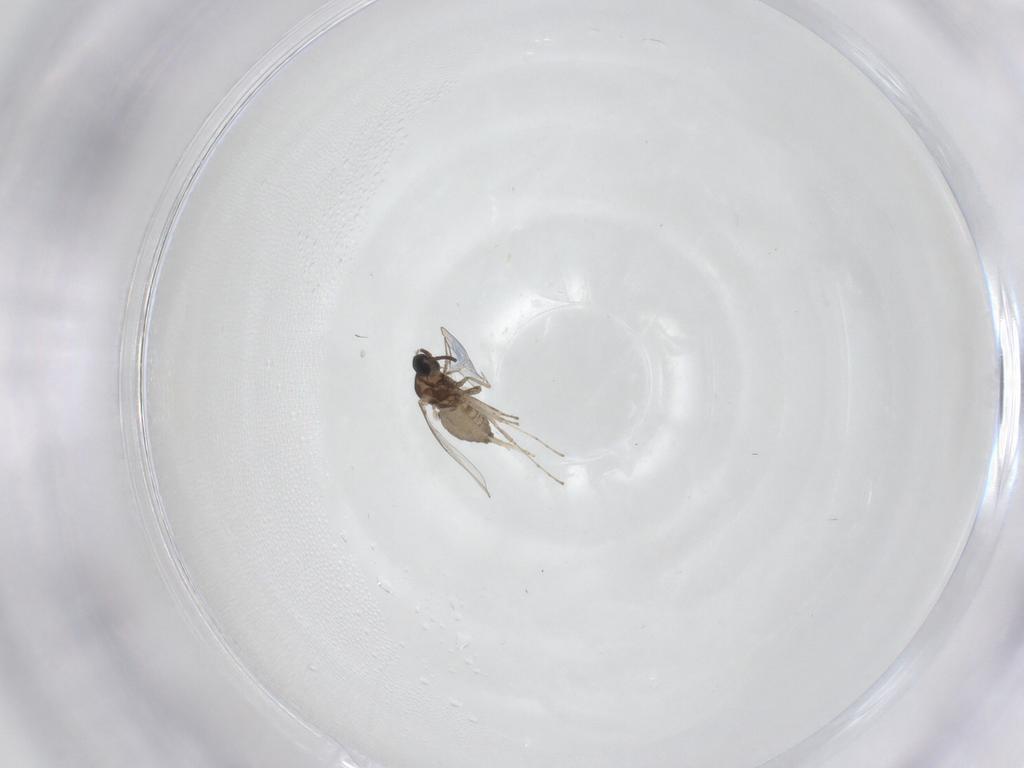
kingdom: Animalia
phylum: Arthropoda
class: Insecta
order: Diptera
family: Cecidomyiidae
